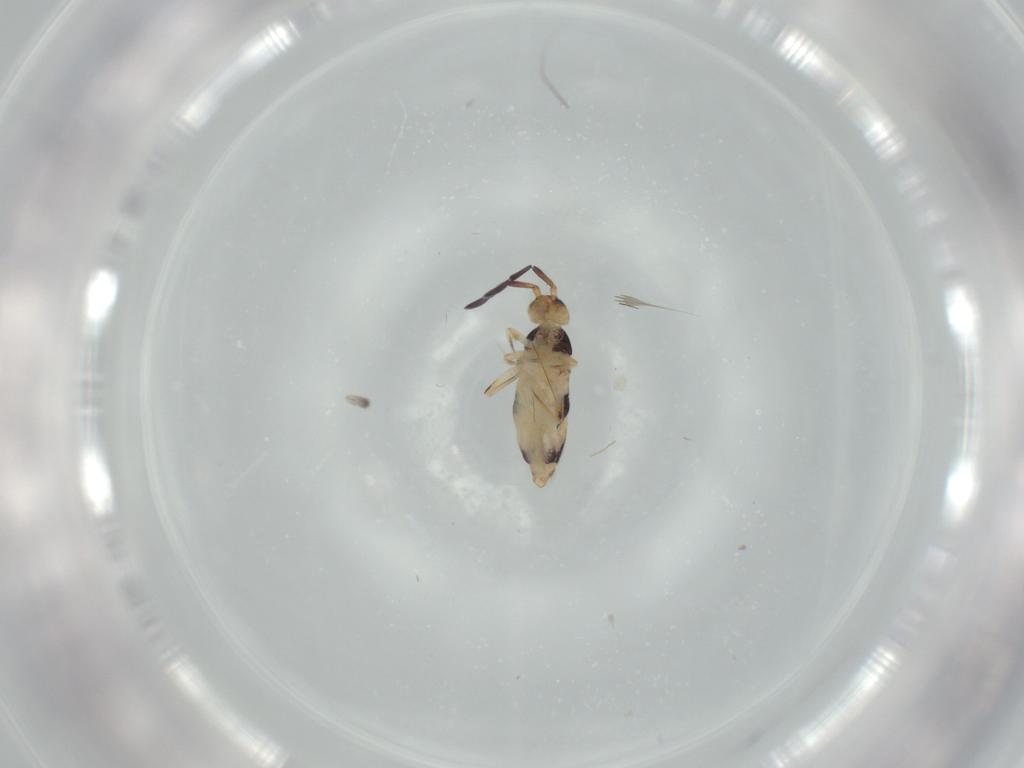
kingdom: Animalia
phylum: Arthropoda
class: Collembola
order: Entomobryomorpha
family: Entomobryidae
